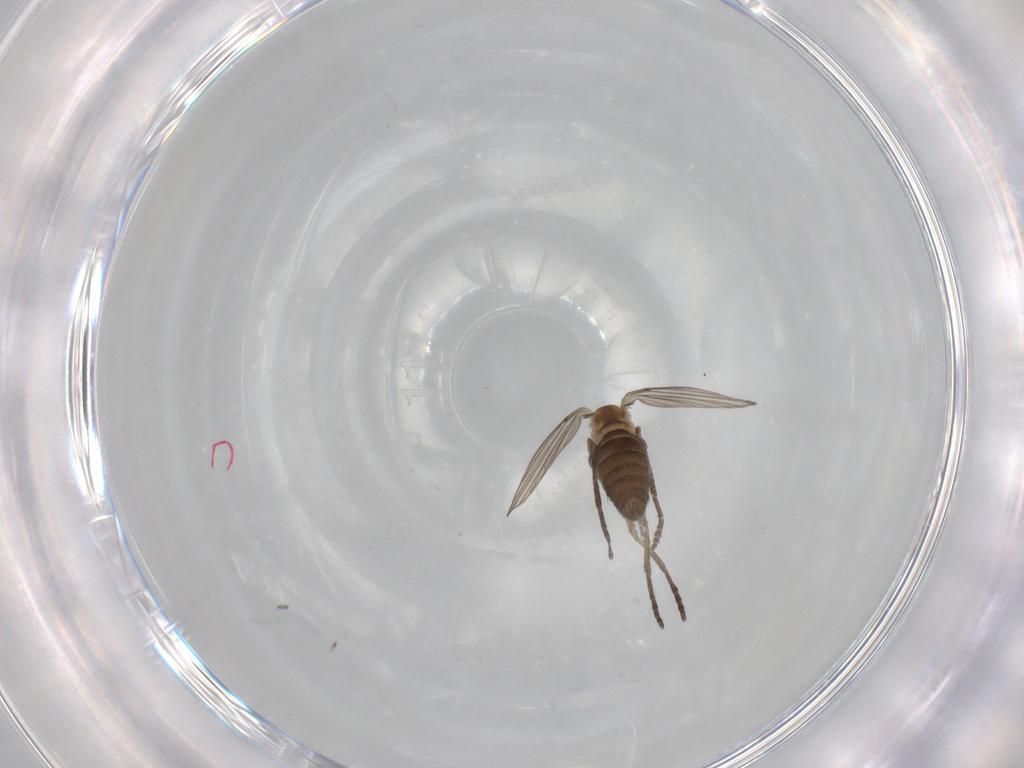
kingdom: Animalia
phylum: Arthropoda
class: Insecta
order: Diptera
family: Psychodidae
